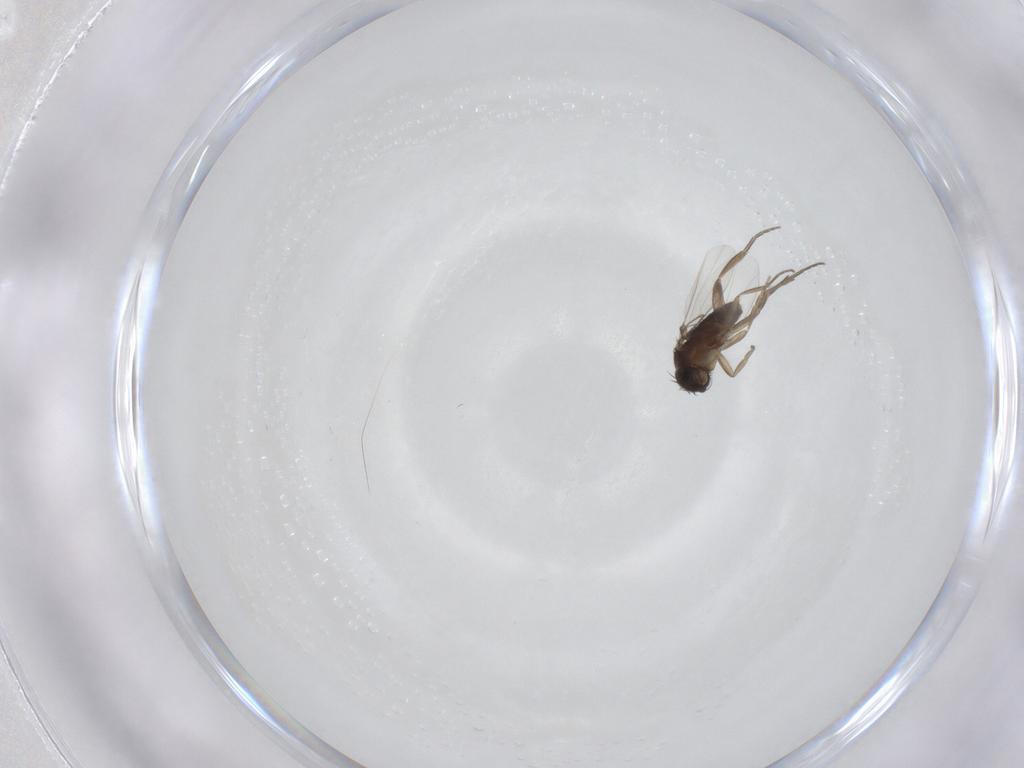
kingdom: Animalia
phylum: Arthropoda
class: Insecta
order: Diptera
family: Phoridae
